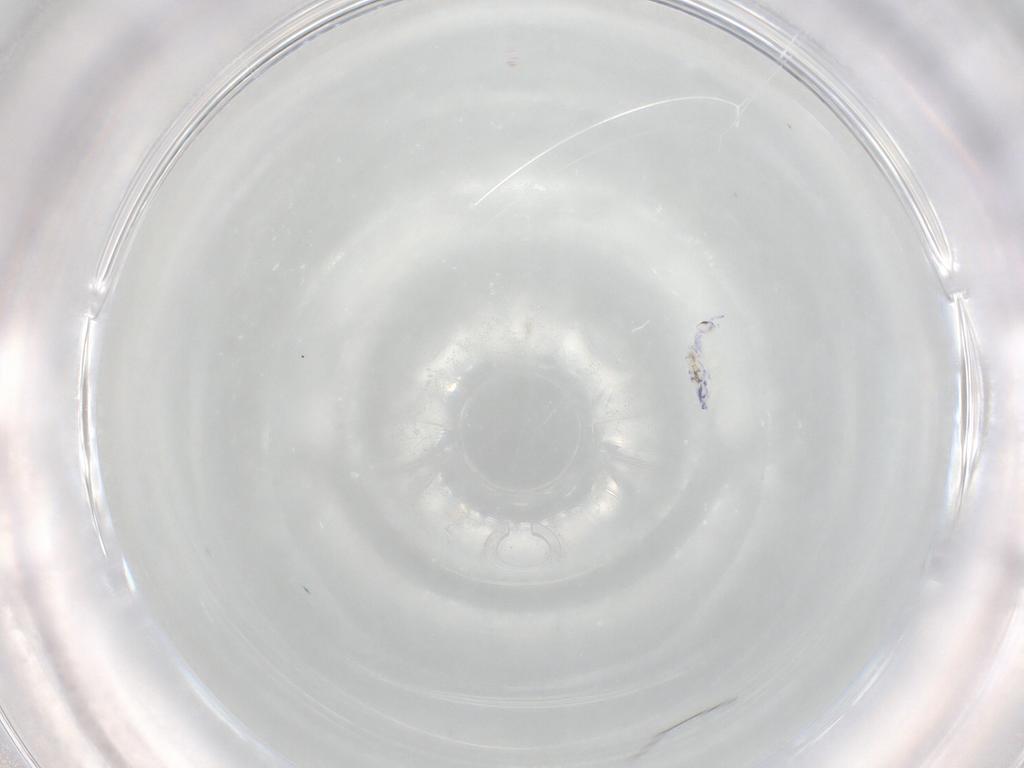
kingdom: Animalia
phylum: Arthropoda
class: Collembola
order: Entomobryomorpha
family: Entomobryidae
